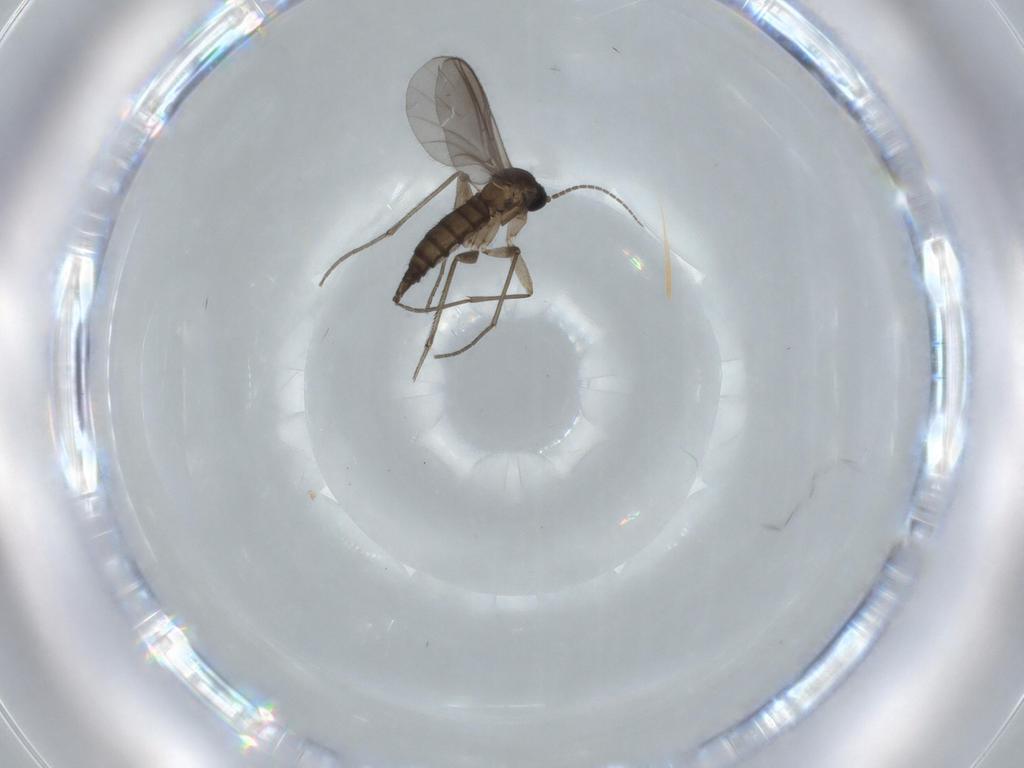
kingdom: Animalia
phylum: Arthropoda
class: Insecta
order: Diptera
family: Sciaridae
